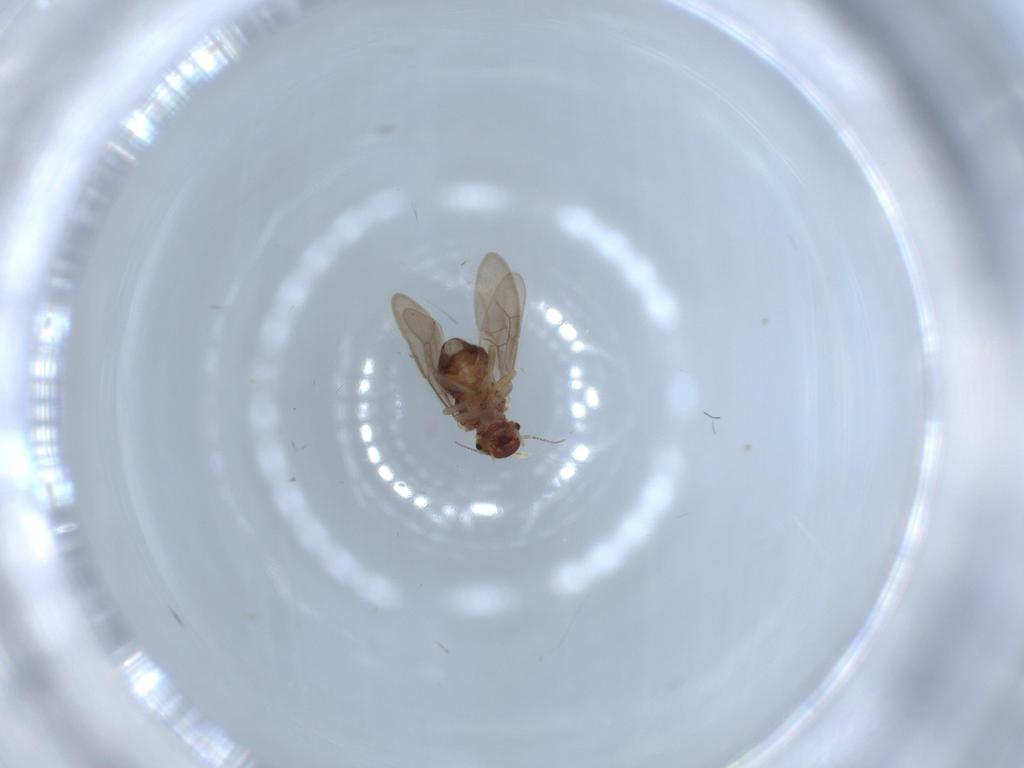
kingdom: Animalia
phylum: Arthropoda
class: Insecta
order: Psocodea
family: Archipsocidae
